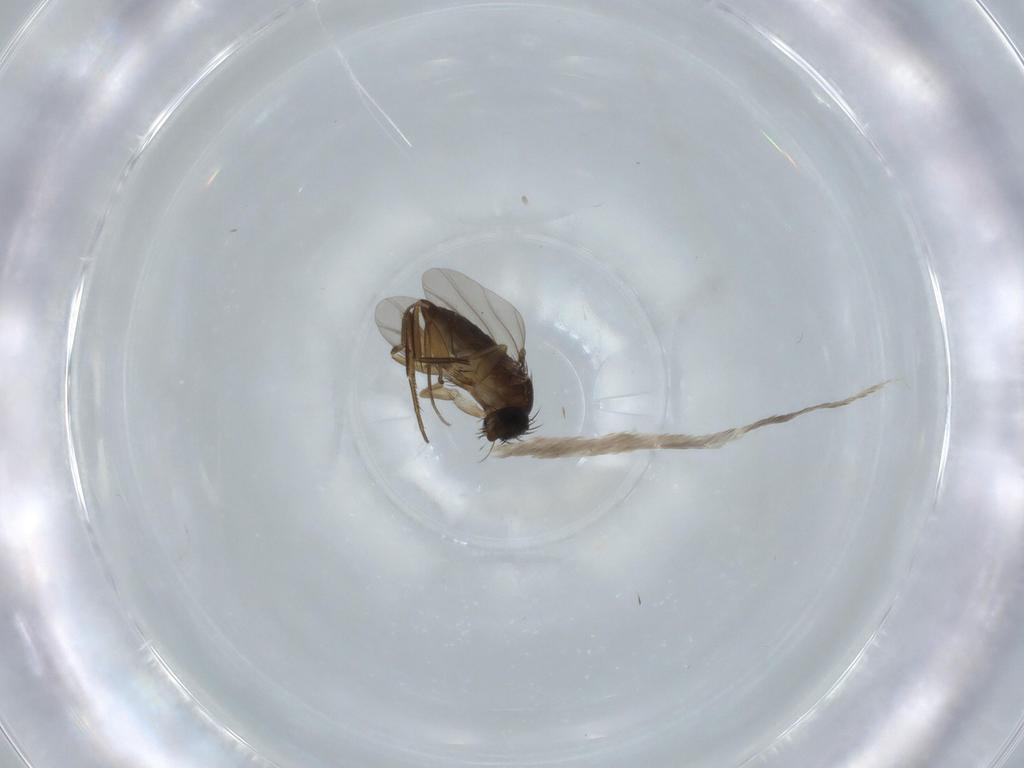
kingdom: Animalia
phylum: Arthropoda
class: Insecta
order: Diptera
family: Phoridae
